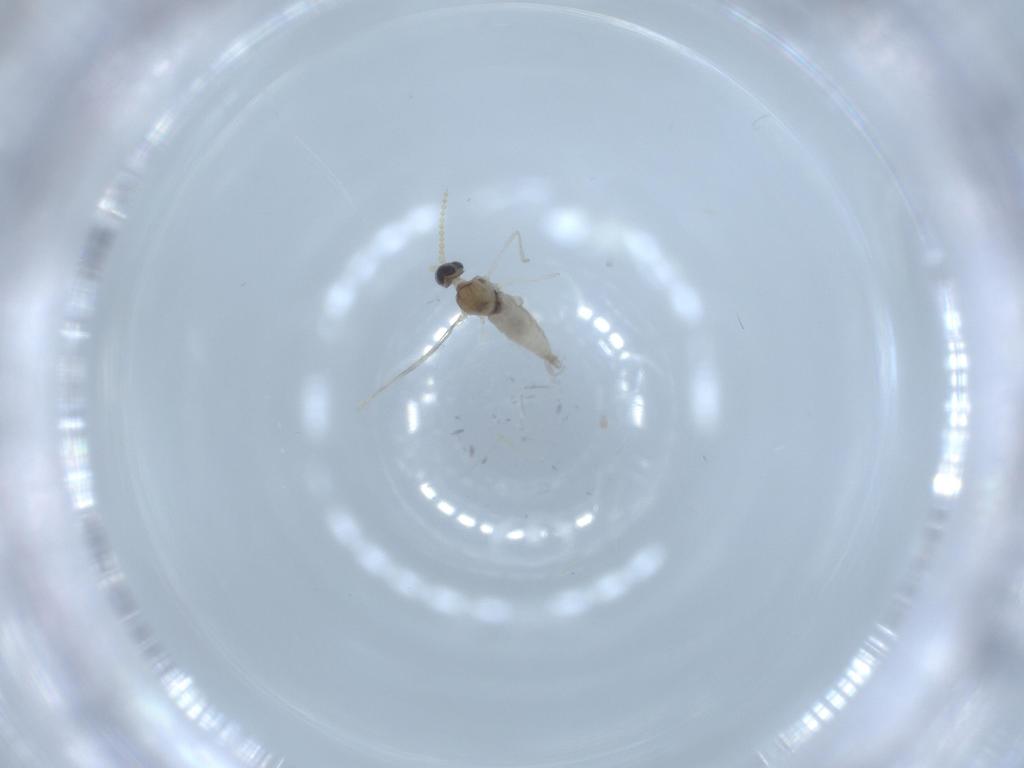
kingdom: Animalia
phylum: Arthropoda
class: Insecta
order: Diptera
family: Cecidomyiidae
